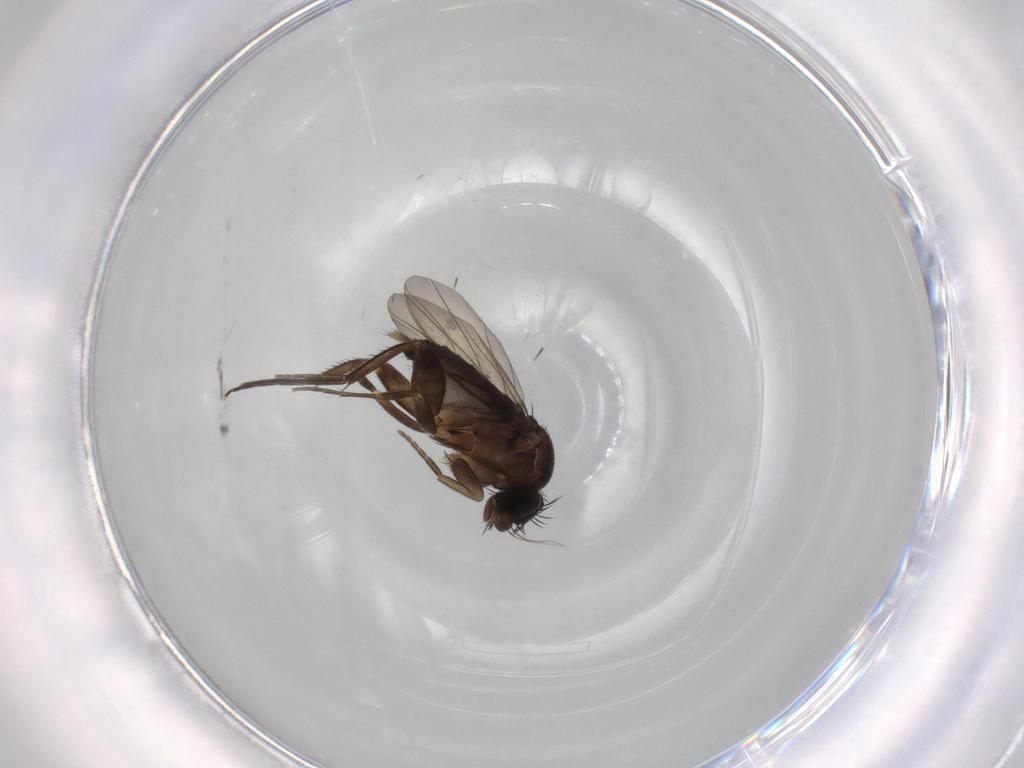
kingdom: Animalia
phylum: Arthropoda
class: Insecta
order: Diptera
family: Phoridae
